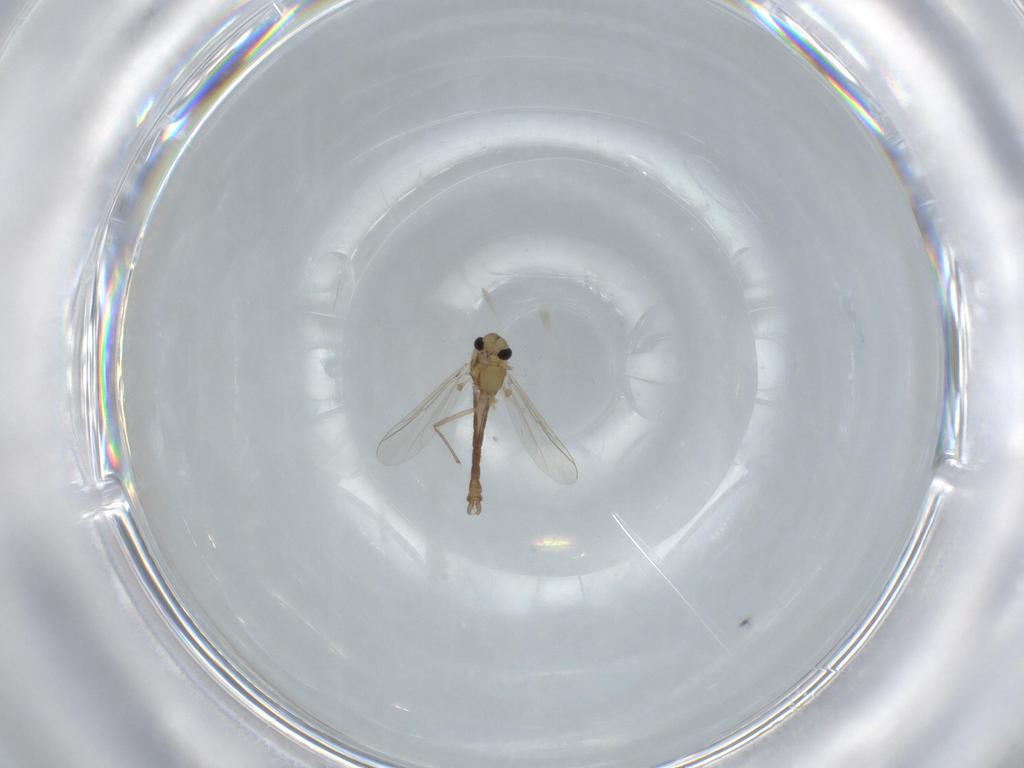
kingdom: Animalia
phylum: Arthropoda
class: Insecta
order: Diptera
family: Chironomidae
